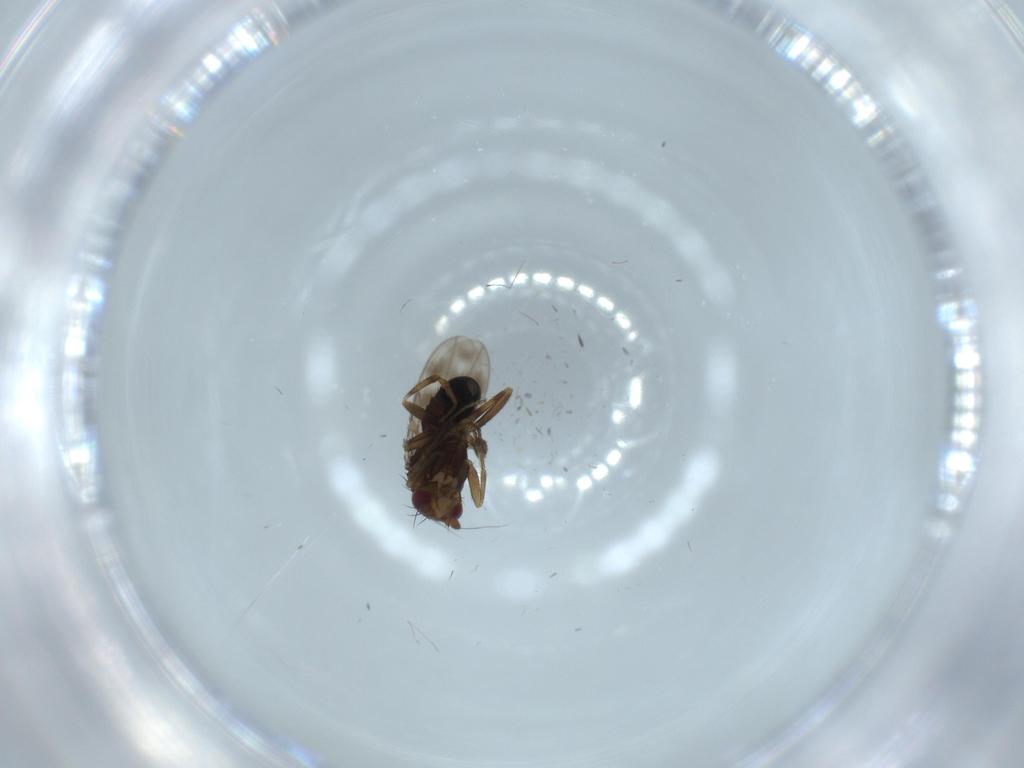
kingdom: Animalia
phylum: Arthropoda
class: Insecta
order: Diptera
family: Sphaeroceridae
